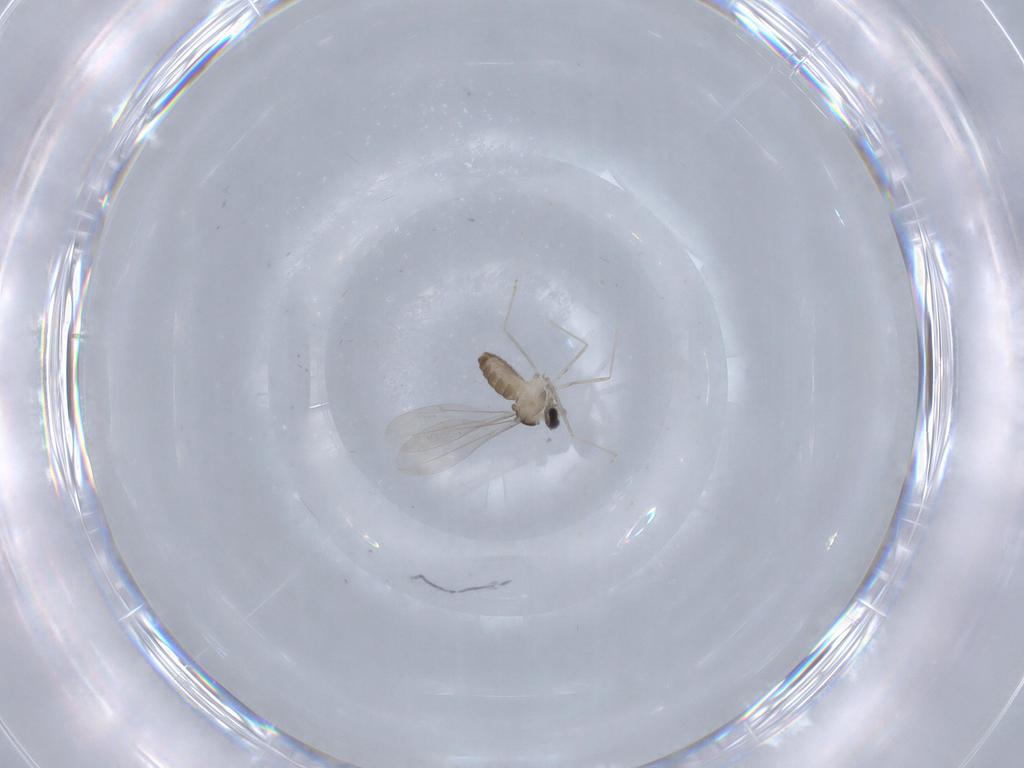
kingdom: Animalia
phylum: Arthropoda
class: Insecta
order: Diptera
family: Cecidomyiidae
